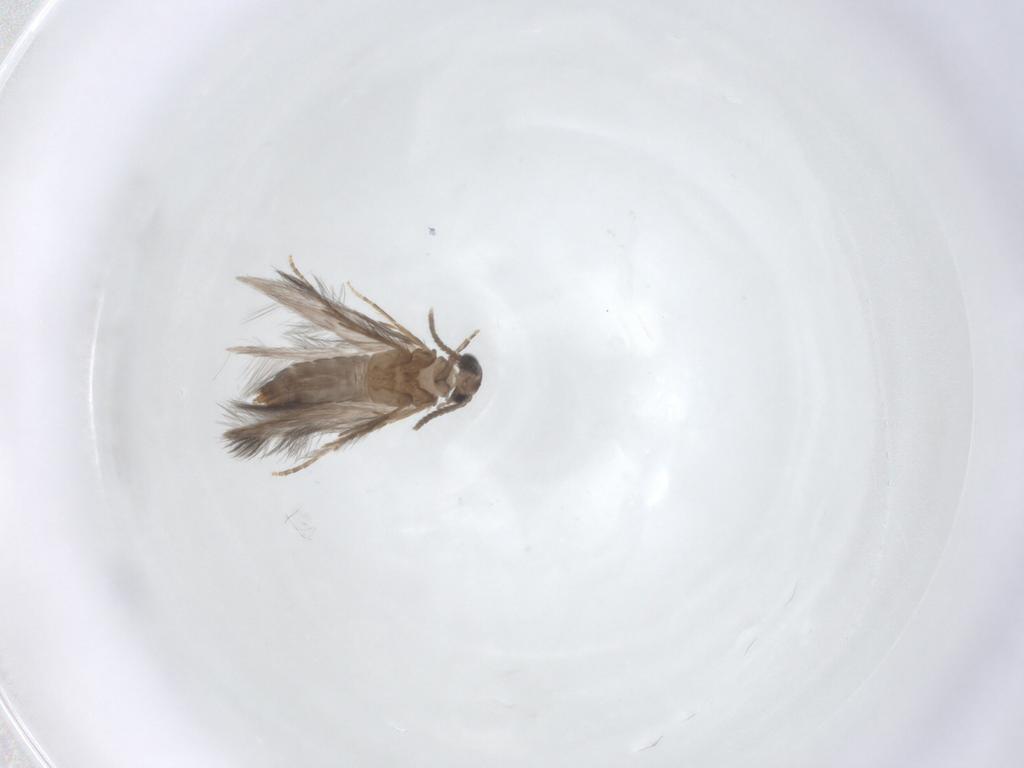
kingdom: Animalia
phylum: Arthropoda
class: Insecta
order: Trichoptera
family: Hydroptilidae
